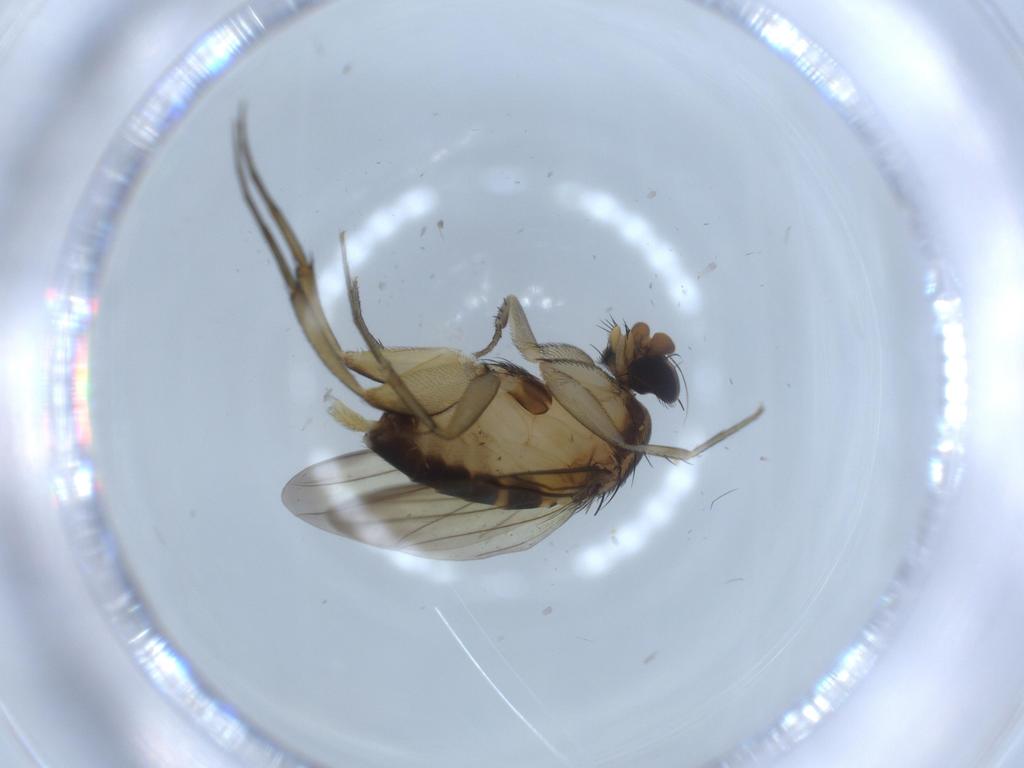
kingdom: Animalia
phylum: Arthropoda
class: Insecta
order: Diptera
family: Phoridae
